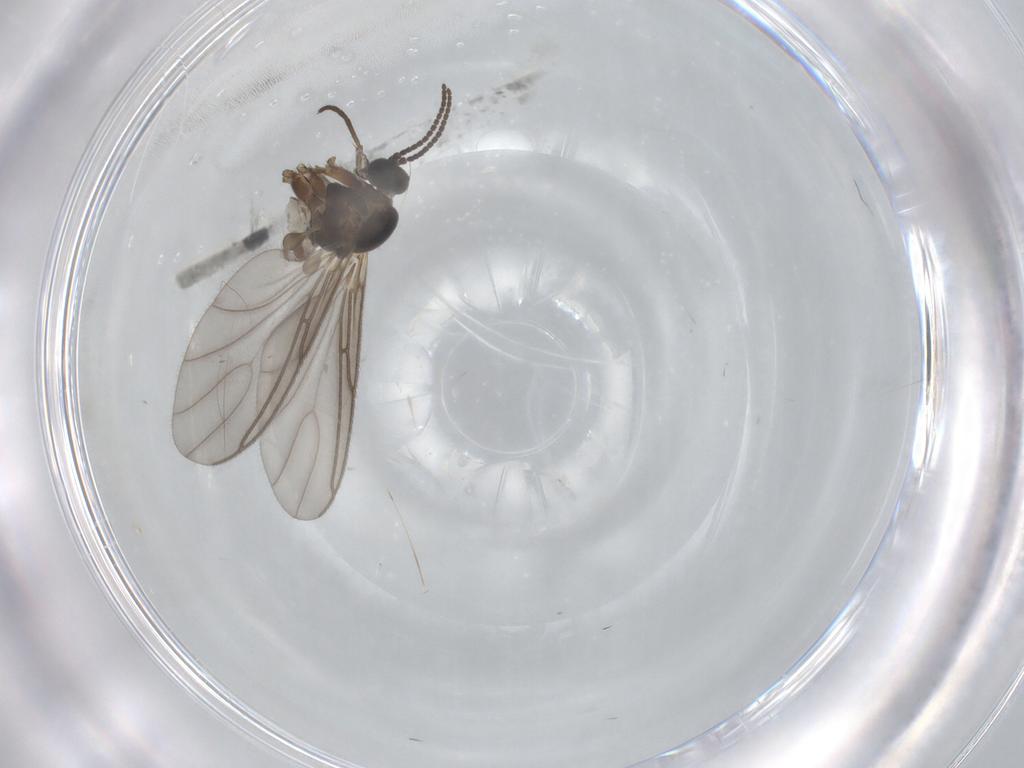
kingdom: Animalia
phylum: Arthropoda
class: Insecta
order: Diptera
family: Sciaridae
